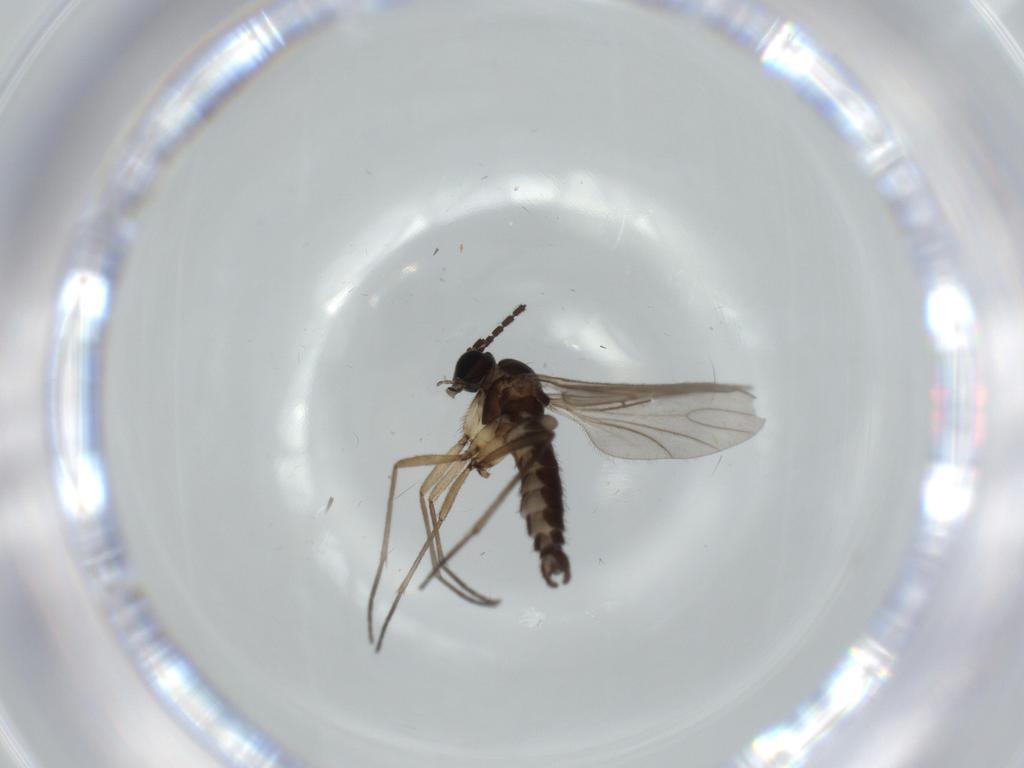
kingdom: Animalia
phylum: Arthropoda
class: Insecta
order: Diptera
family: Sciaridae
